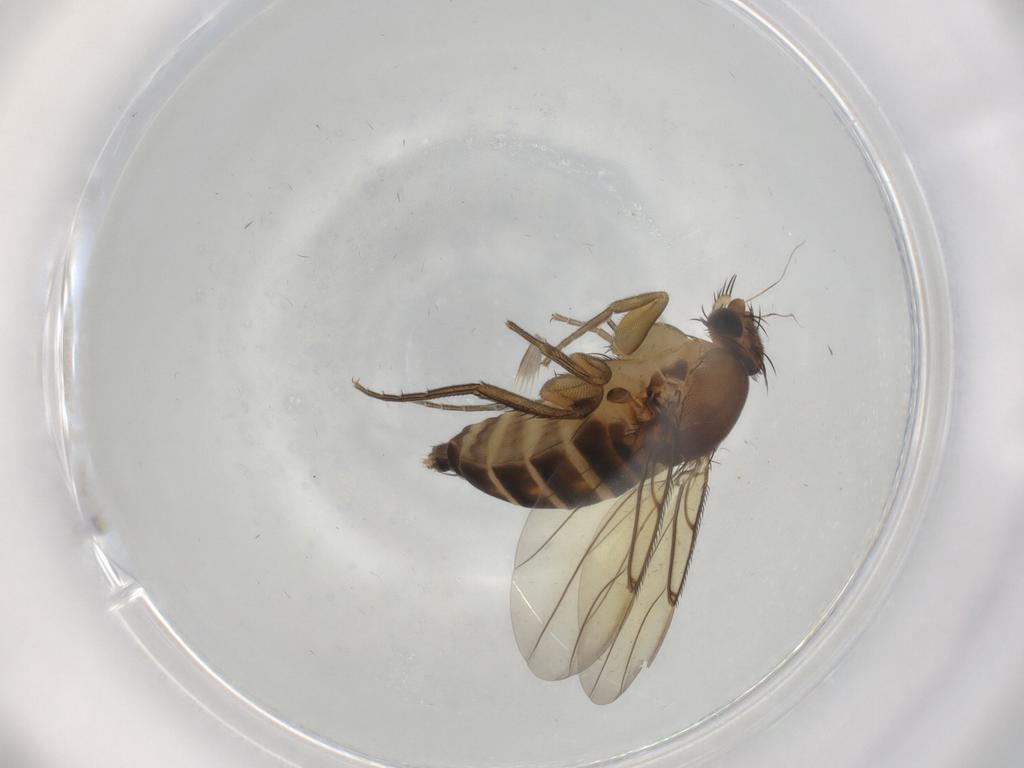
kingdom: Animalia
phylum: Arthropoda
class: Insecta
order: Diptera
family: Phoridae
